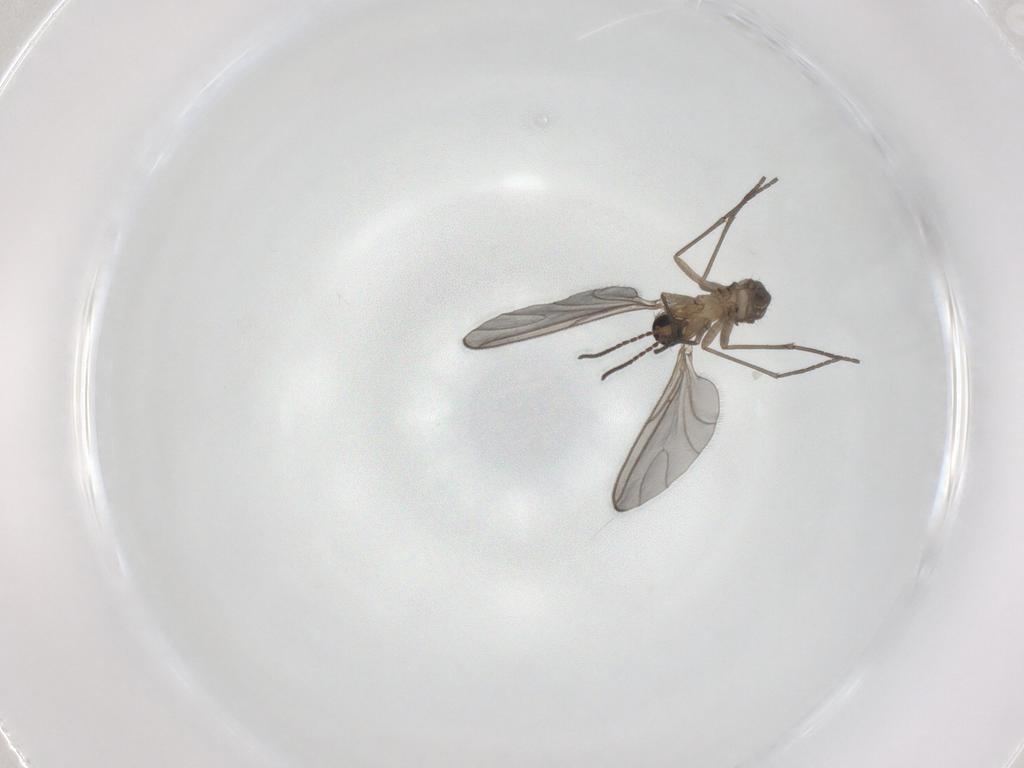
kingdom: Animalia
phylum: Arthropoda
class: Insecta
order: Diptera
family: Sciaridae
